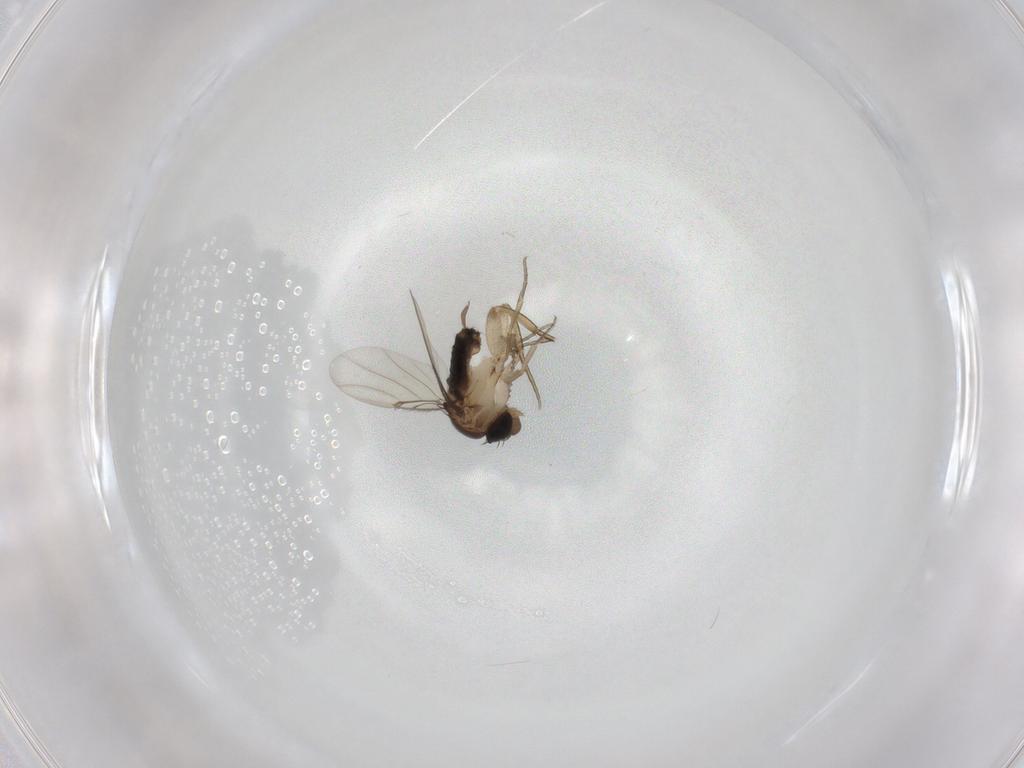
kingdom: Animalia
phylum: Arthropoda
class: Insecta
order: Diptera
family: Cecidomyiidae
